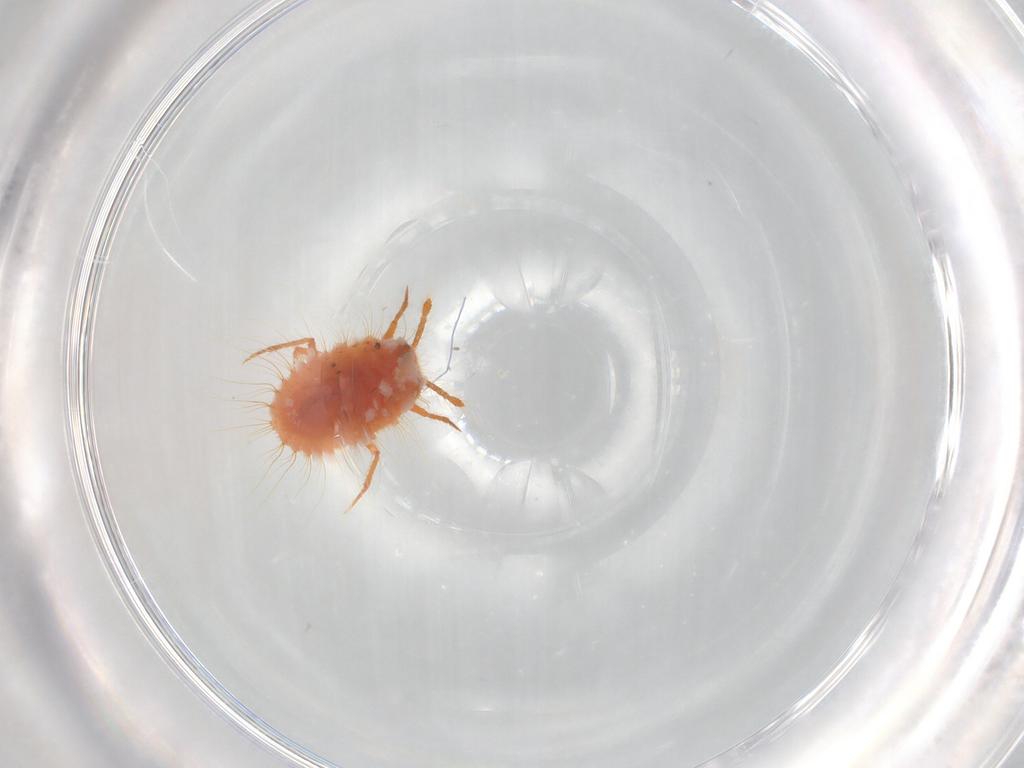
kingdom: Animalia
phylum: Arthropoda
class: Insecta
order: Hemiptera
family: Coccoidea_incertae_sedis
